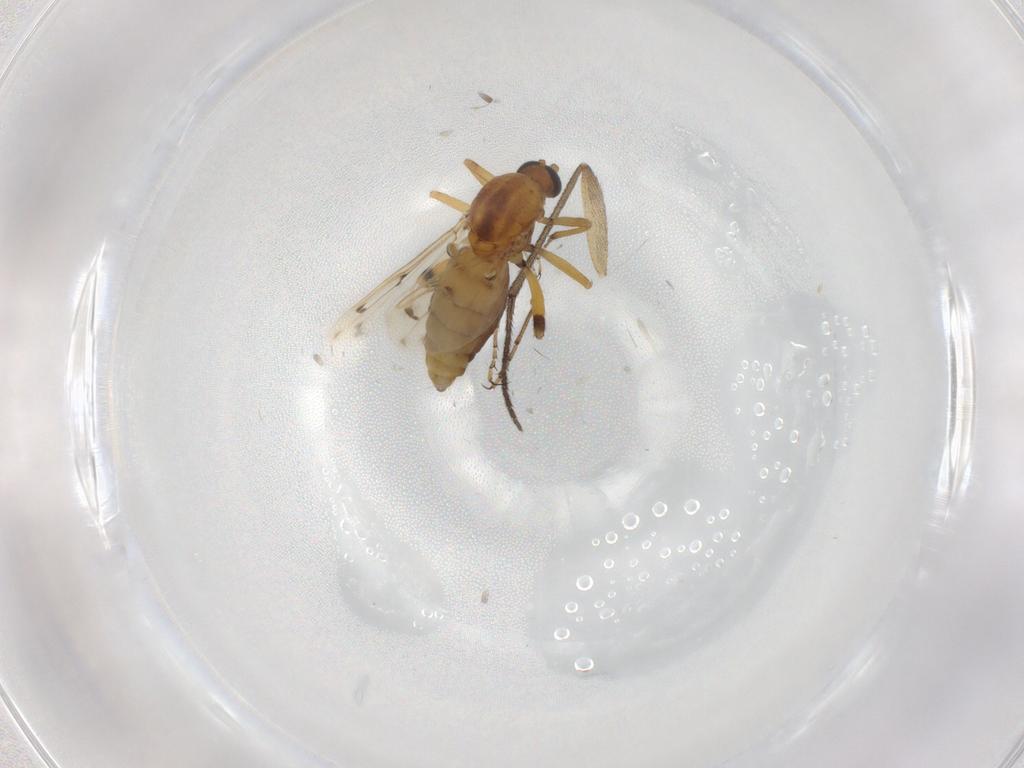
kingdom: Animalia
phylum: Arthropoda
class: Insecta
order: Diptera
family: Ceratopogonidae
